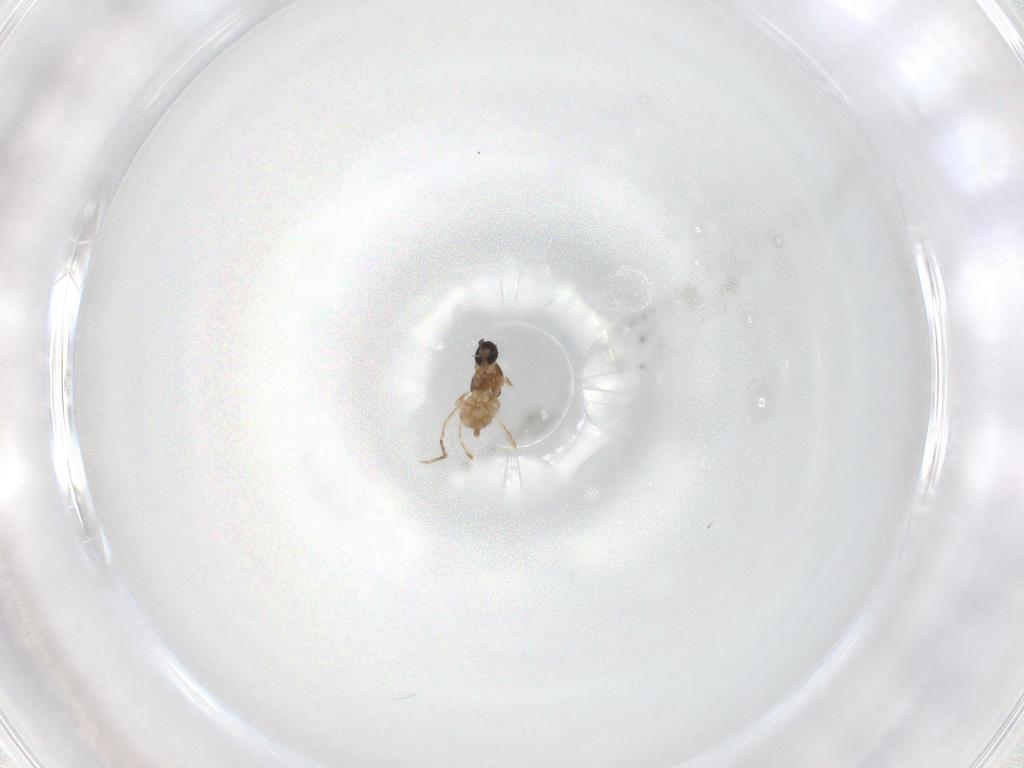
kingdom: Animalia
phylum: Arthropoda
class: Insecta
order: Diptera
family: Cecidomyiidae
